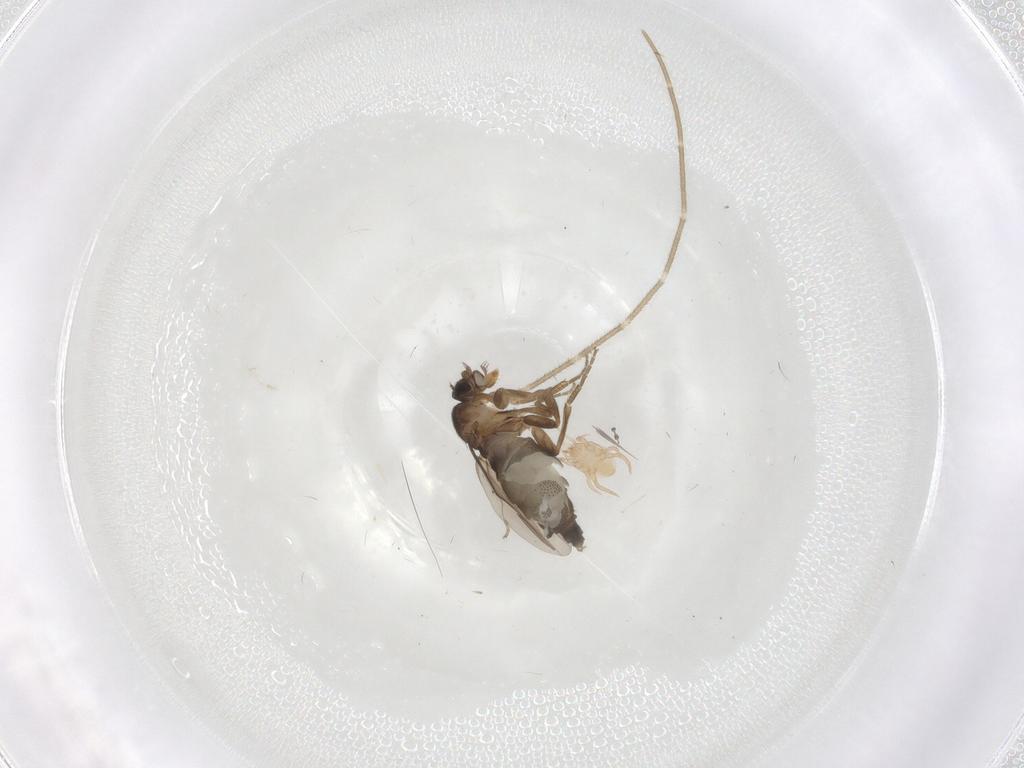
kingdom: Animalia
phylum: Arthropoda
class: Arachnida
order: Mesostigmata
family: Macrochelidae
